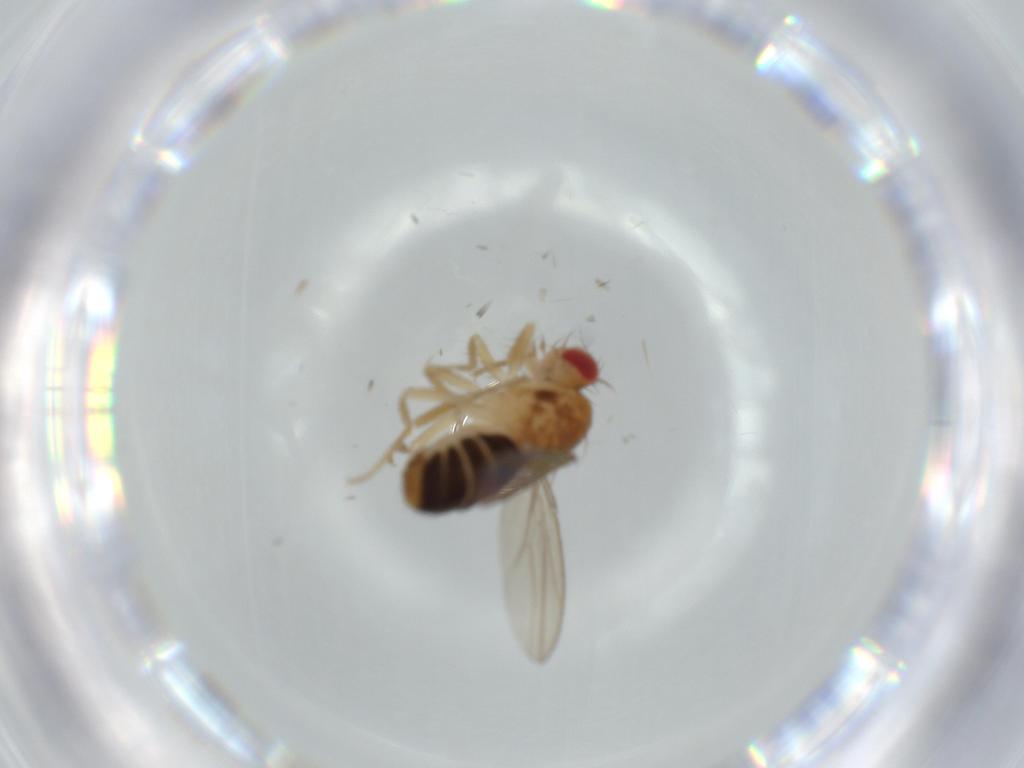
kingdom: Animalia
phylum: Arthropoda
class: Insecta
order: Diptera
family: Drosophilidae
